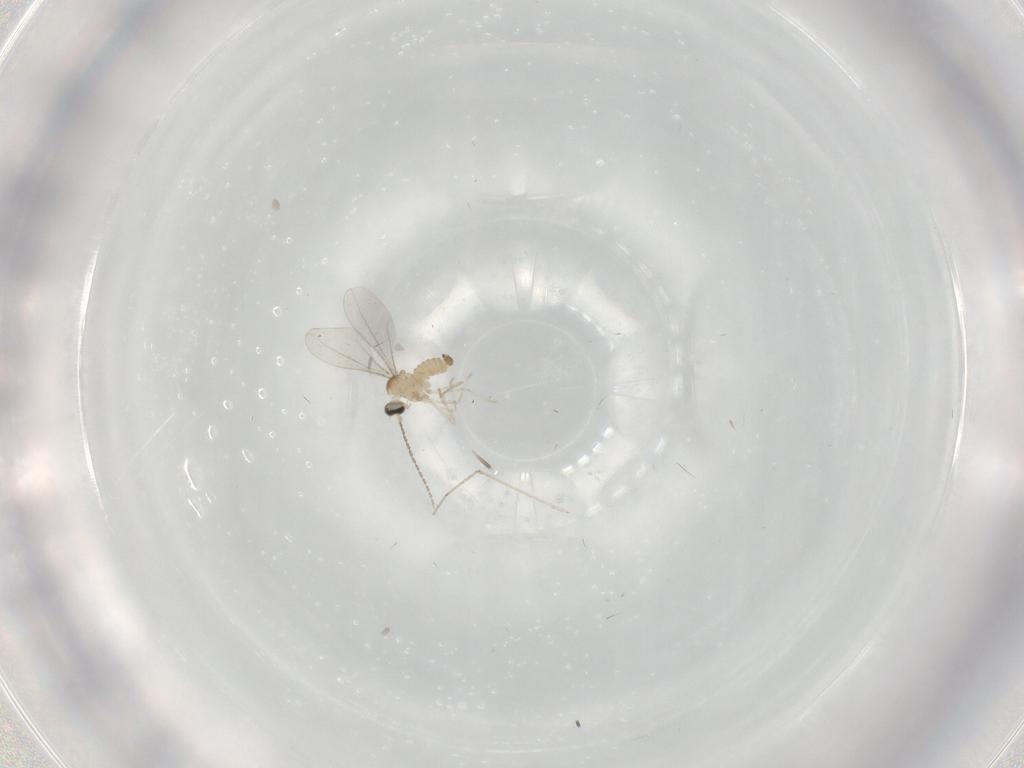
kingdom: Animalia
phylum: Arthropoda
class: Insecta
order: Diptera
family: Cecidomyiidae
